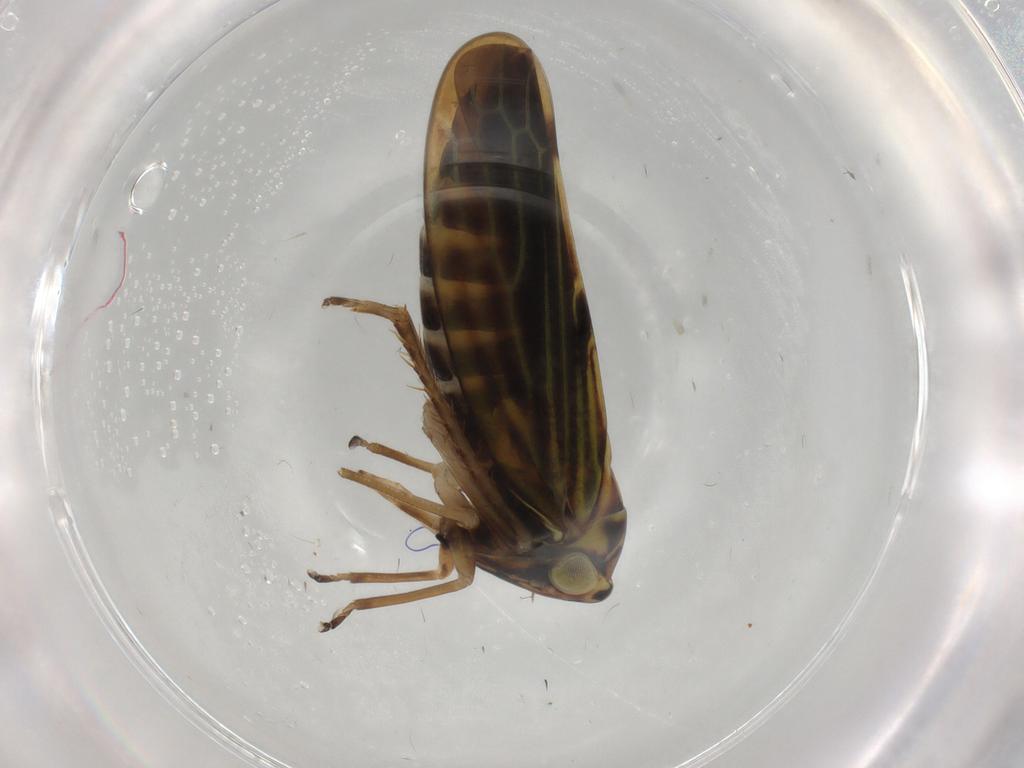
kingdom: Animalia
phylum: Arthropoda
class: Insecta
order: Hemiptera
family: Cicadellidae
